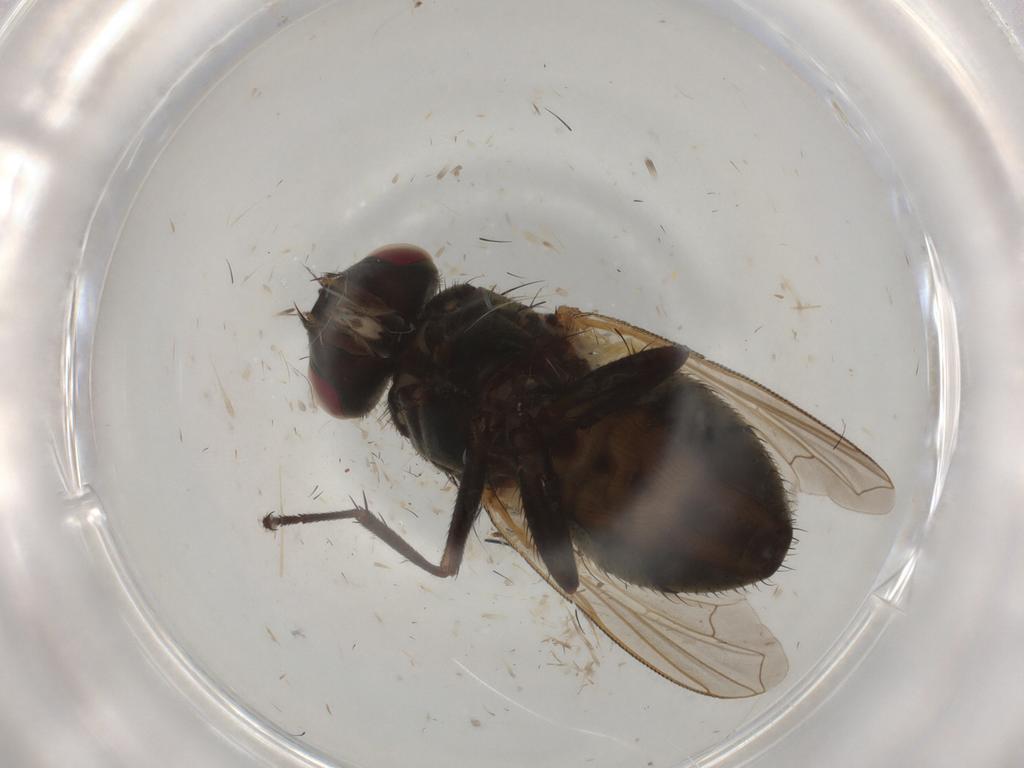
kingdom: Animalia
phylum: Arthropoda
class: Insecta
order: Diptera
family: Muscidae
